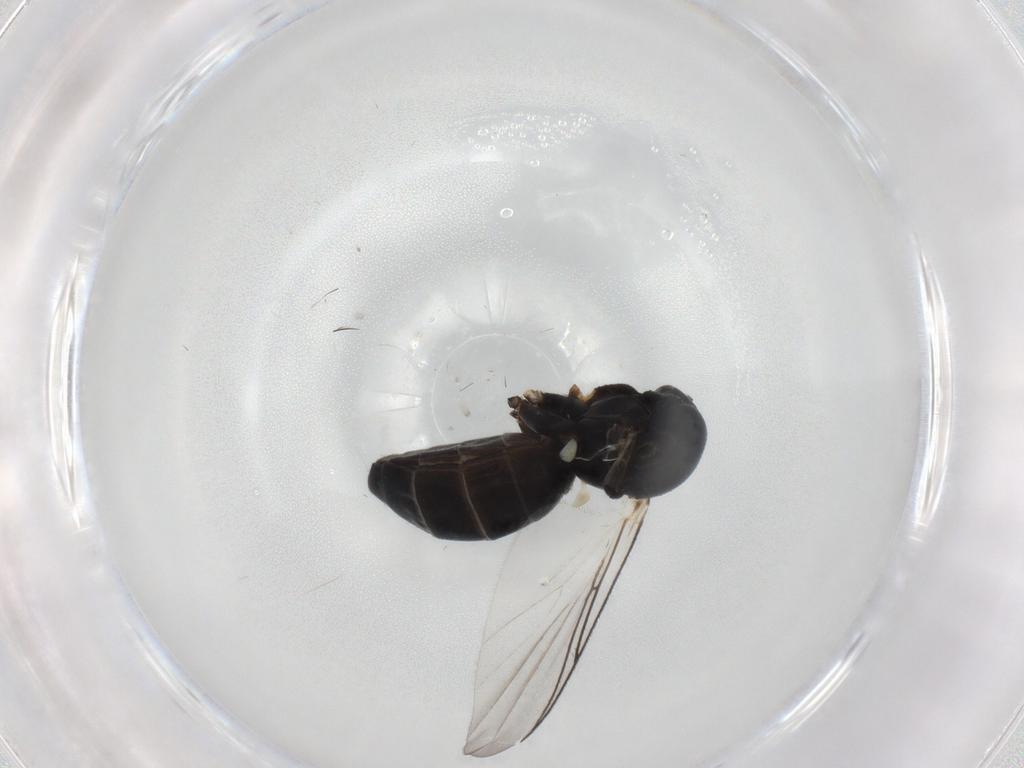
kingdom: Animalia
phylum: Arthropoda
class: Insecta
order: Diptera
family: Mycetophilidae
